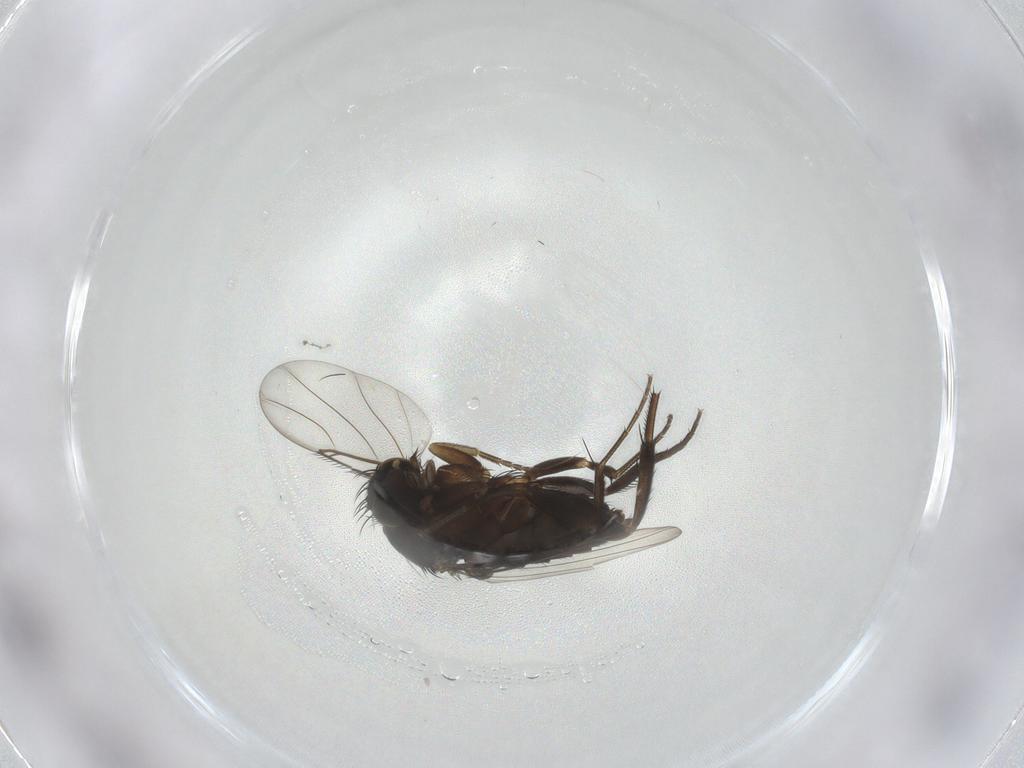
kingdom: Animalia
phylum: Arthropoda
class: Insecta
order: Diptera
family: Phoridae
